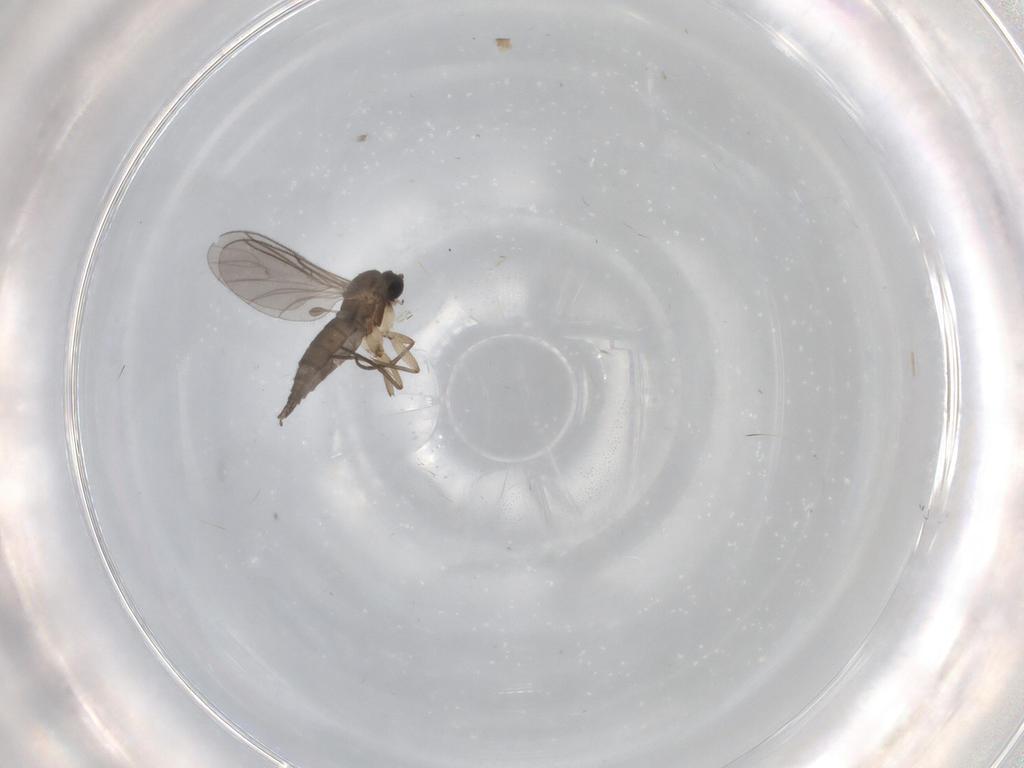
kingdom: Animalia
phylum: Arthropoda
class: Insecta
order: Diptera
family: Sciaridae
